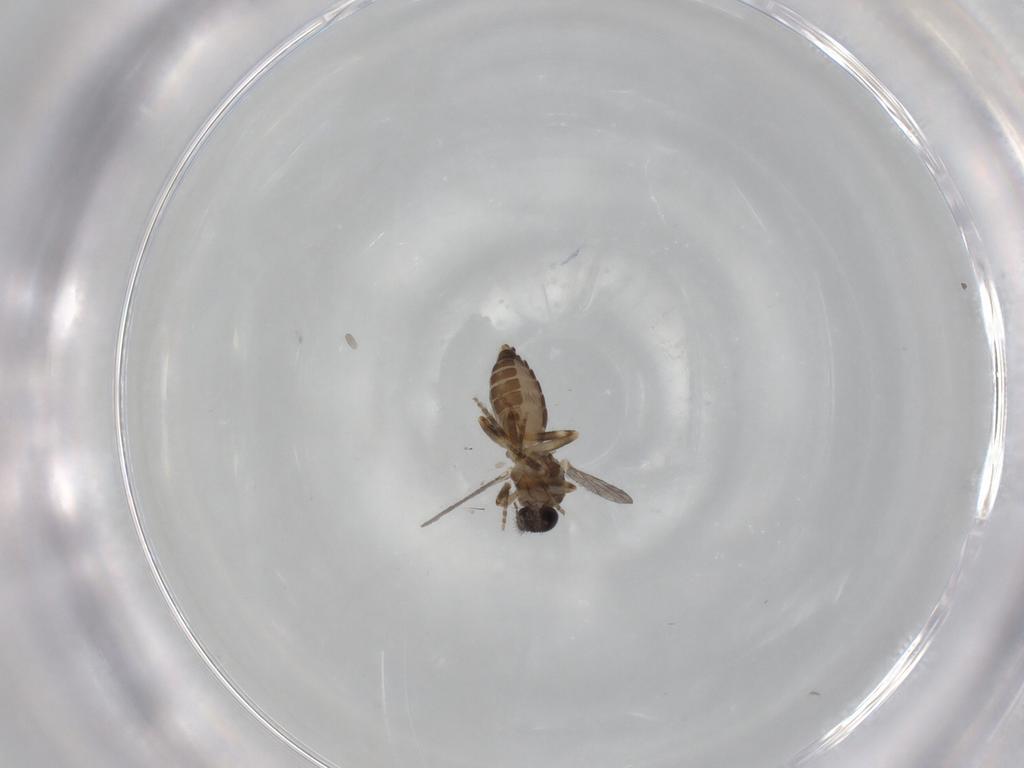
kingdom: Animalia
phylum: Arthropoda
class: Insecta
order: Diptera
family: Ceratopogonidae
